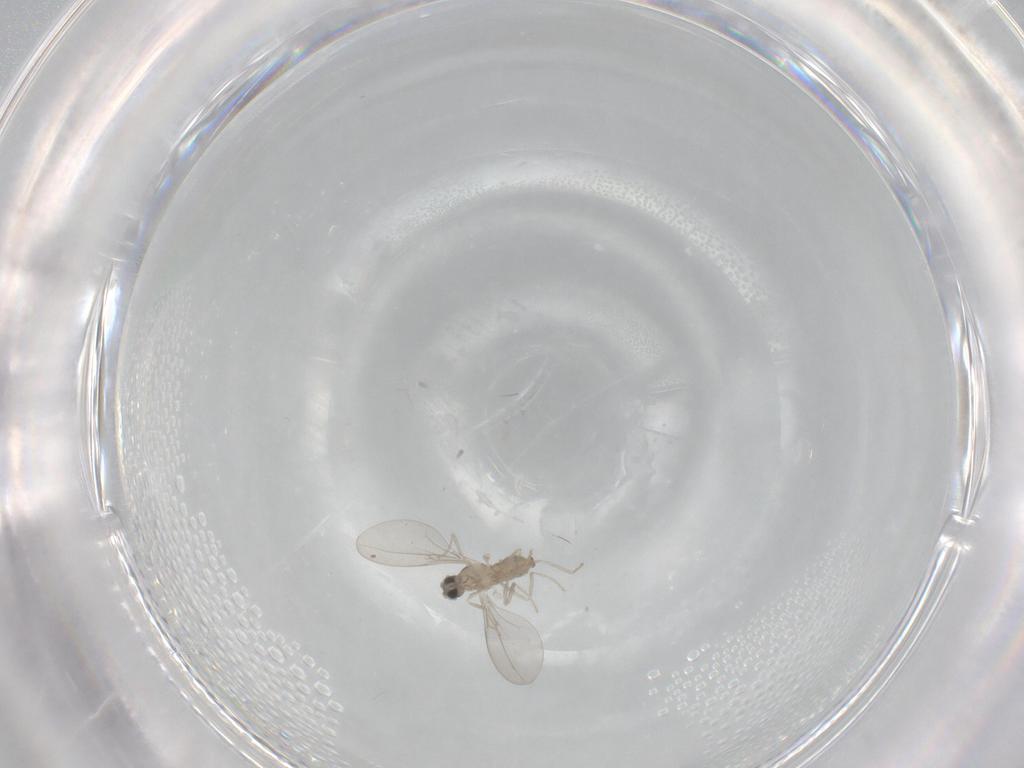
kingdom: Animalia
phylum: Arthropoda
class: Insecta
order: Diptera
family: Cecidomyiidae
